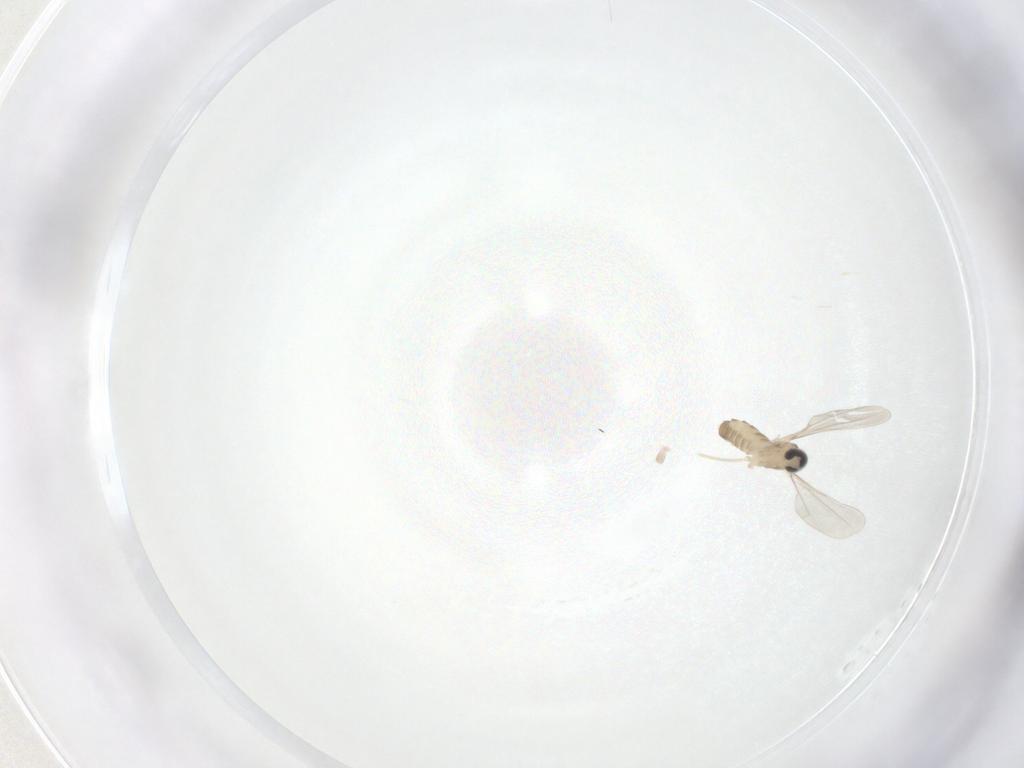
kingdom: Animalia
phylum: Arthropoda
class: Insecta
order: Diptera
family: Cecidomyiidae
